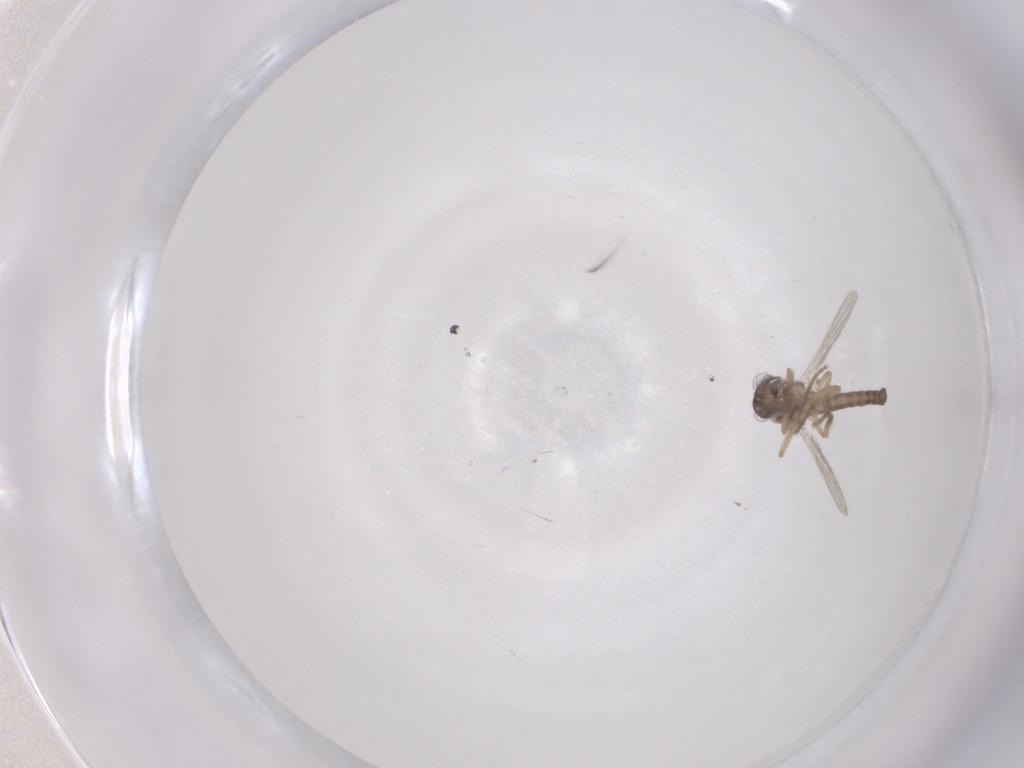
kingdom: Animalia
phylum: Arthropoda
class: Insecta
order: Diptera
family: Ceratopogonidae
